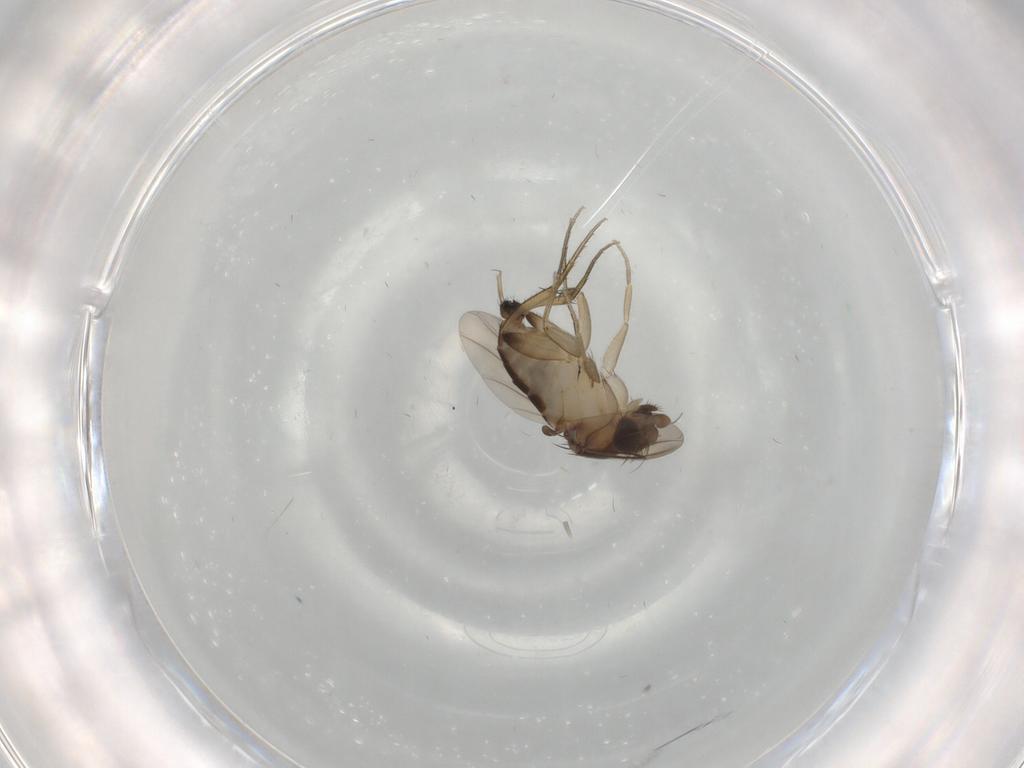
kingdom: Animalia
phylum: Arthropoda
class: Insecta
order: Diptera
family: Phoridae
